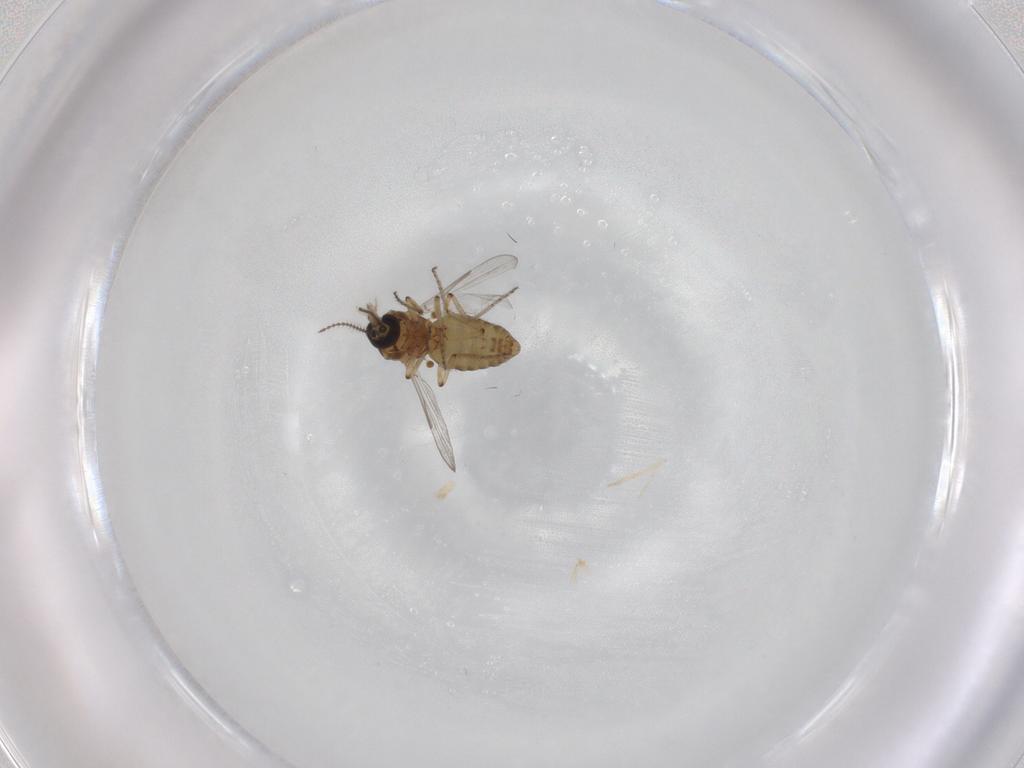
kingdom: Animalia
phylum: Arthropoda
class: Insecta
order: Diptera
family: Ceratopogonidae
